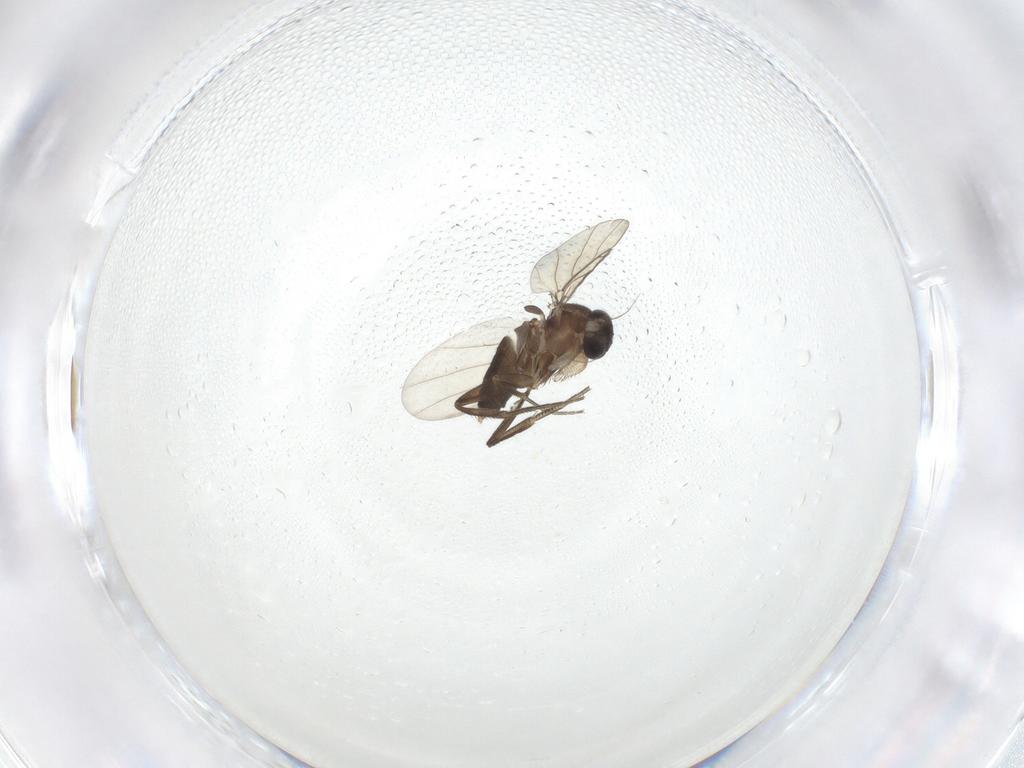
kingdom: Animalia
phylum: Arthropoda
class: Insecta
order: Diptera
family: Phoridae
